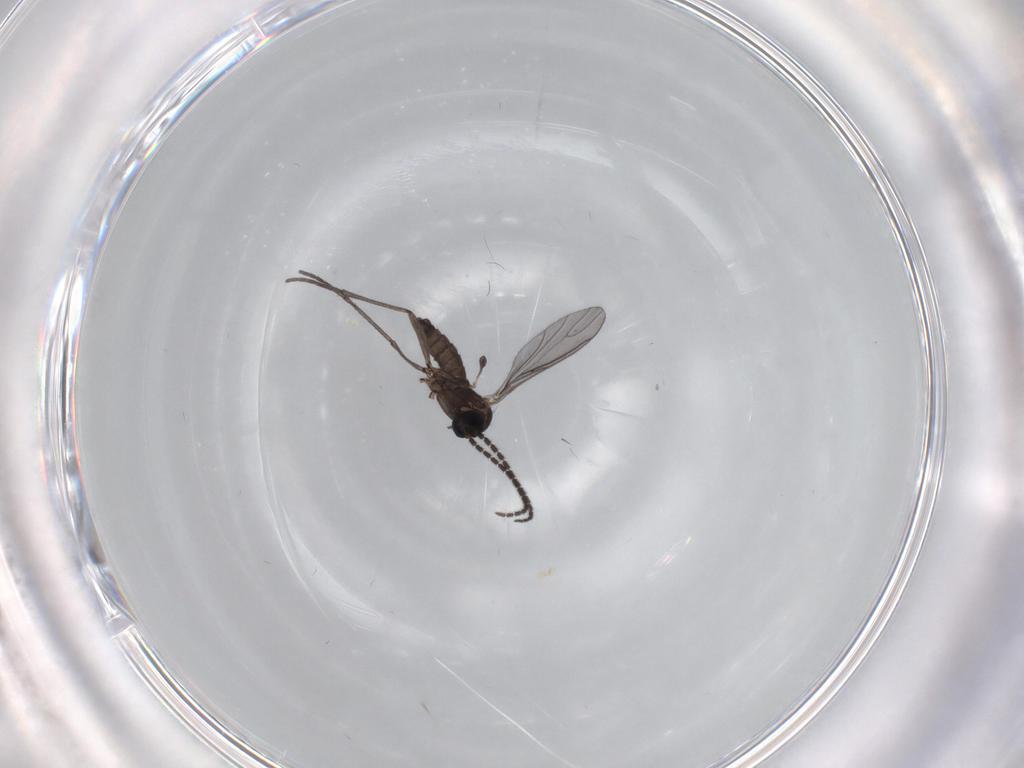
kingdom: Animalia
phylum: Arthropoda
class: Insecta
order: Diptera
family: Sciaridae
